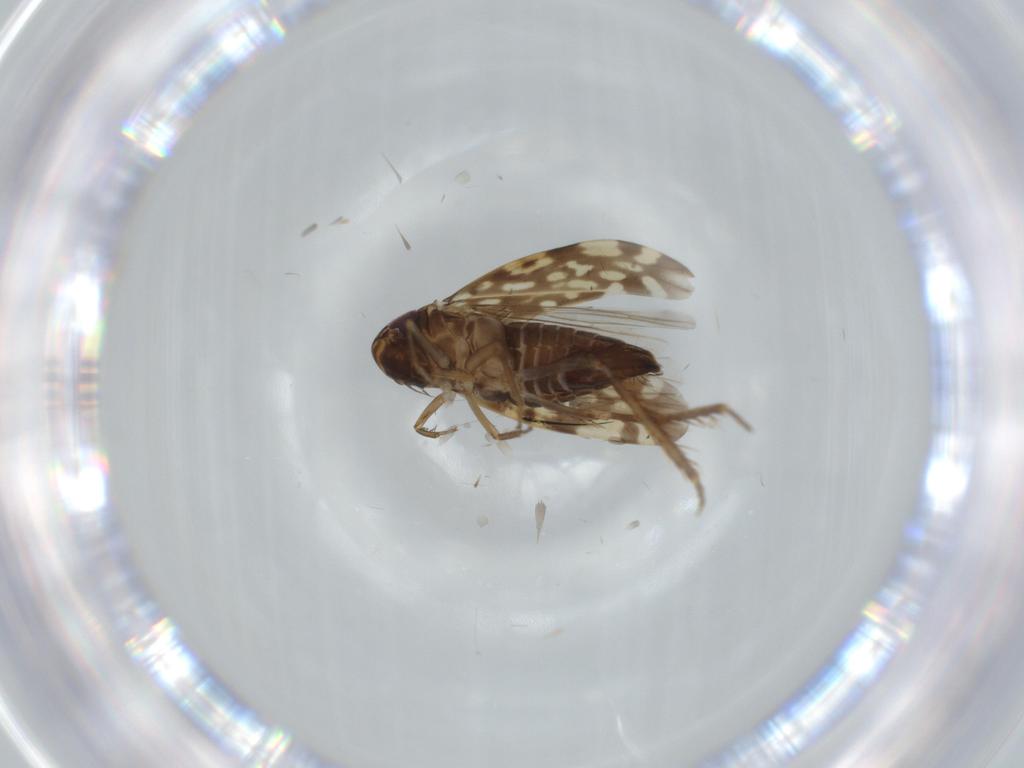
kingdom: Animalia
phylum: Arthropoda
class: Insecta
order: Hemiptera
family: Cicadellidae
